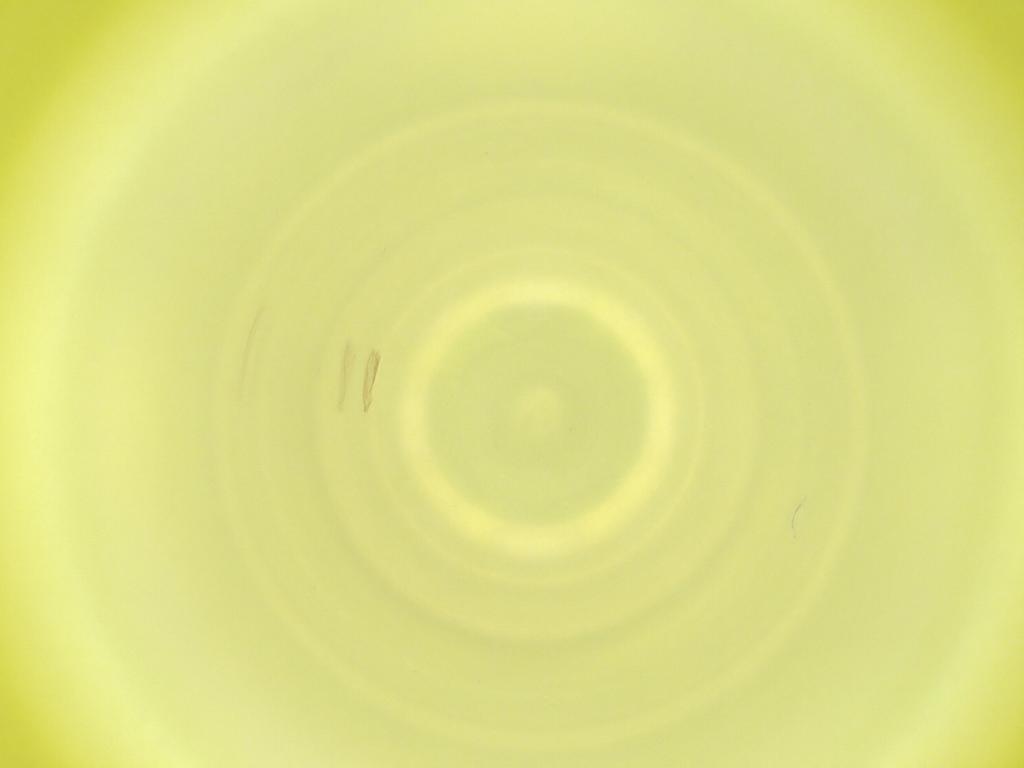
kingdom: Animalia
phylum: Arthropoda
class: Insecta
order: Diptera
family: Cecidomyiidae
